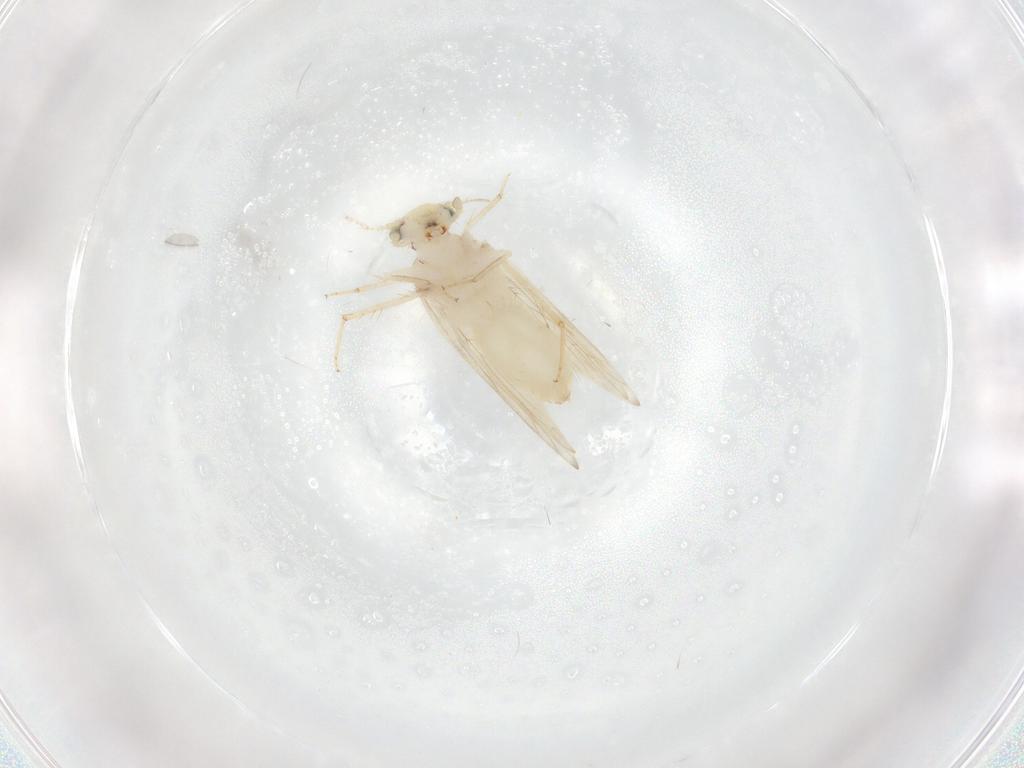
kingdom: Animalia
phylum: Arthropoda
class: Insecta
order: Psocodea
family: Lepidopsocidae
